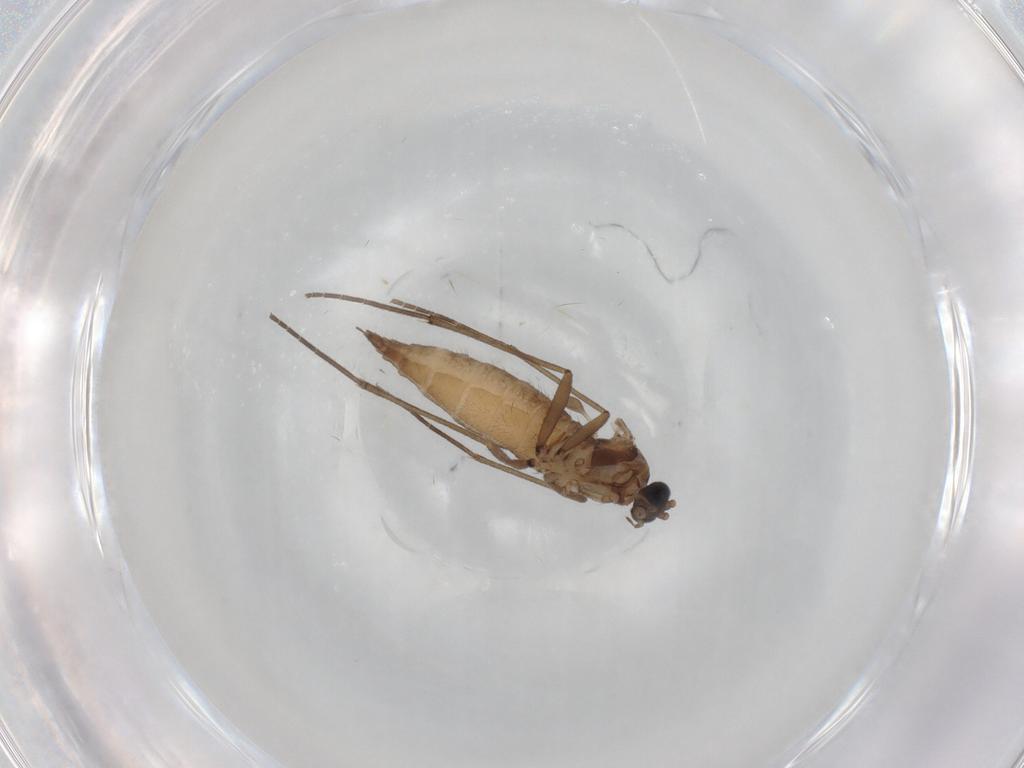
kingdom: Animalia
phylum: Arthropoda
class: Insecta
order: Diptera
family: Sciaridae
